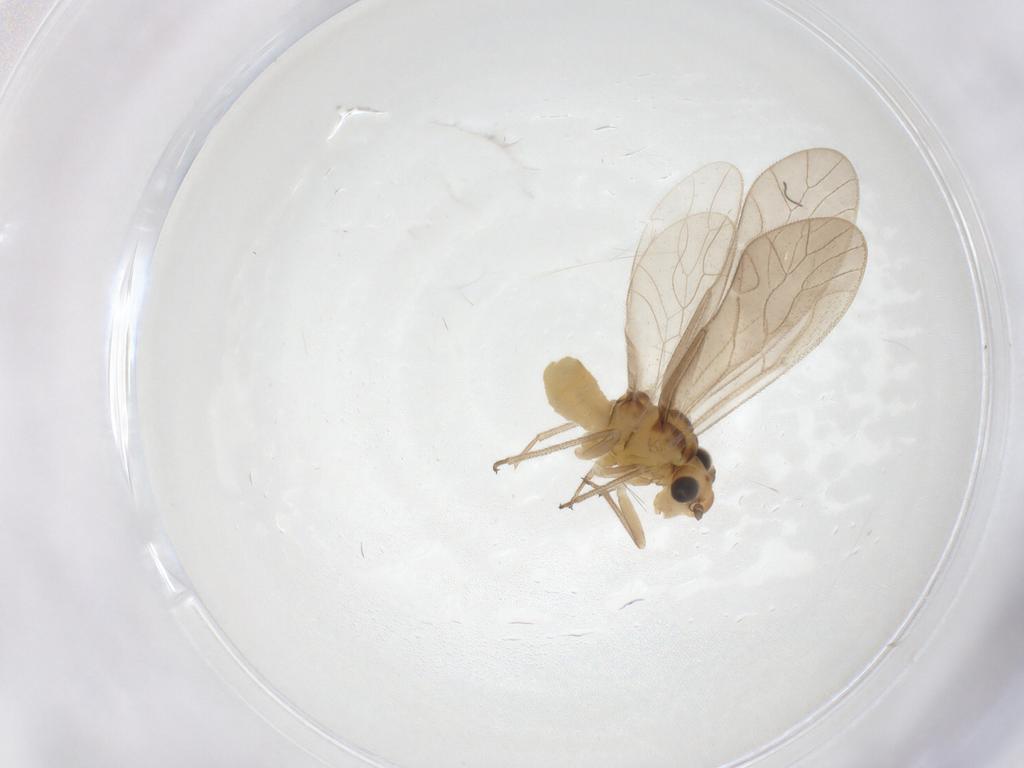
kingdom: Animalia
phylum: Arthropoda
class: Insecta
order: Psocodea
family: Caeciliusidae
